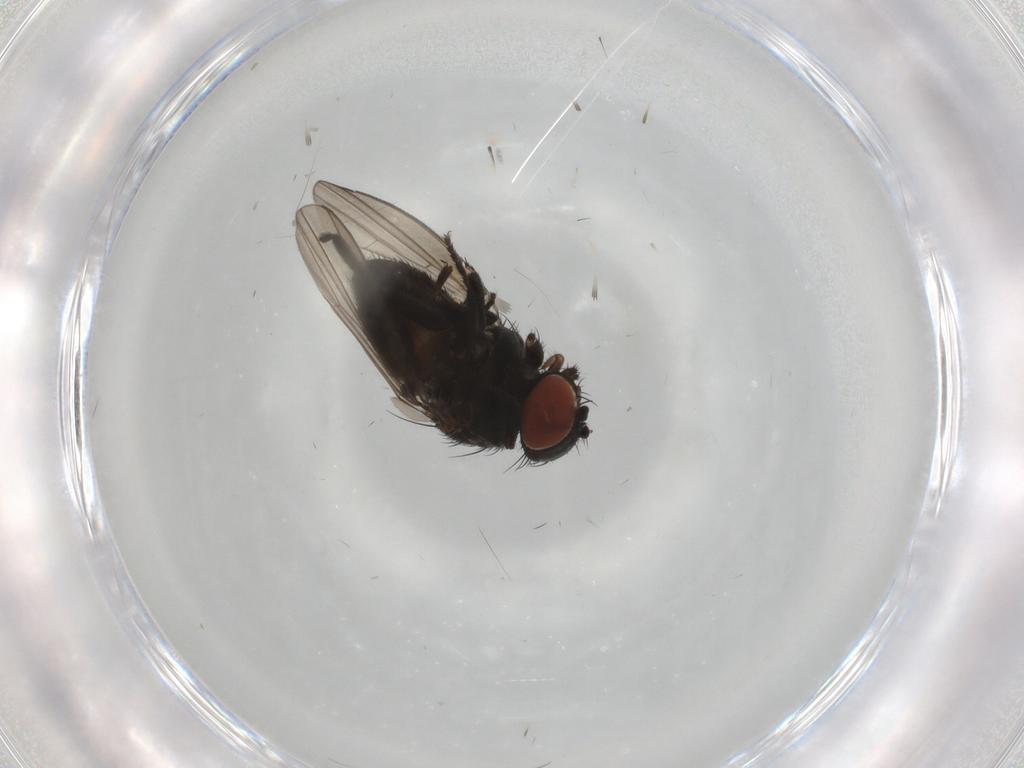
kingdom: Animalia
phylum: Arthropoda
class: Insecta
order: Diptera
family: Milichiidae
